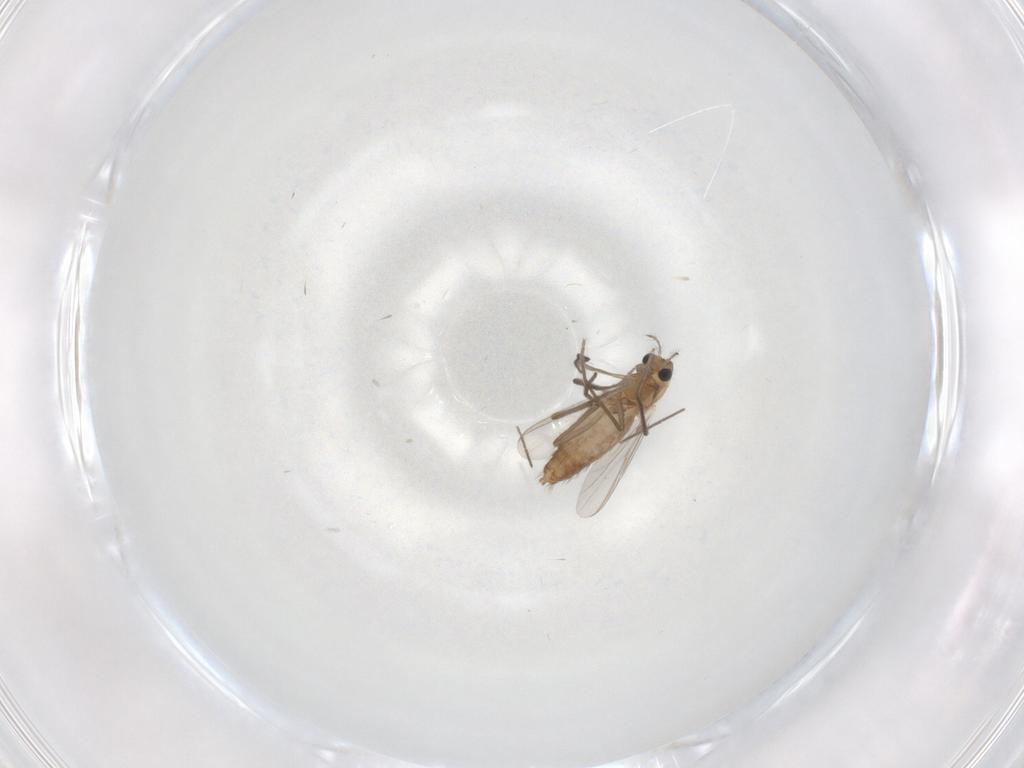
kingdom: Animalia
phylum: Arthropoda
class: Insecta
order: Diptera
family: Chironomidae
